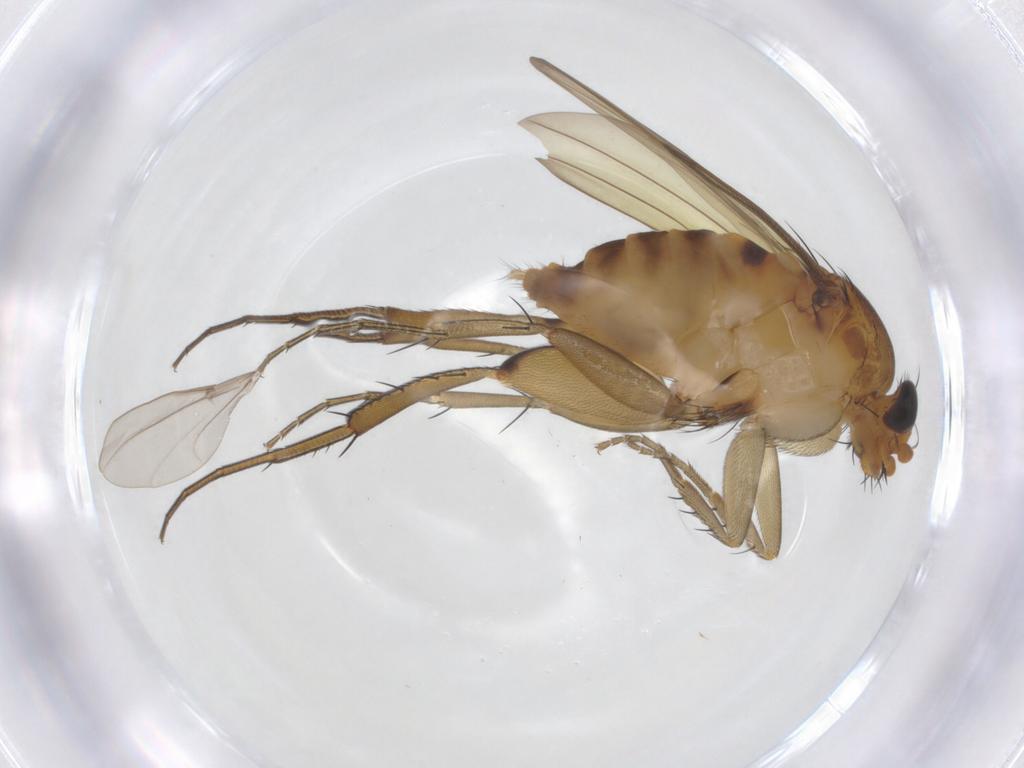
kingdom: Animalia
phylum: Arthropoda
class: Insecta
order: Diptera
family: Phoridae
